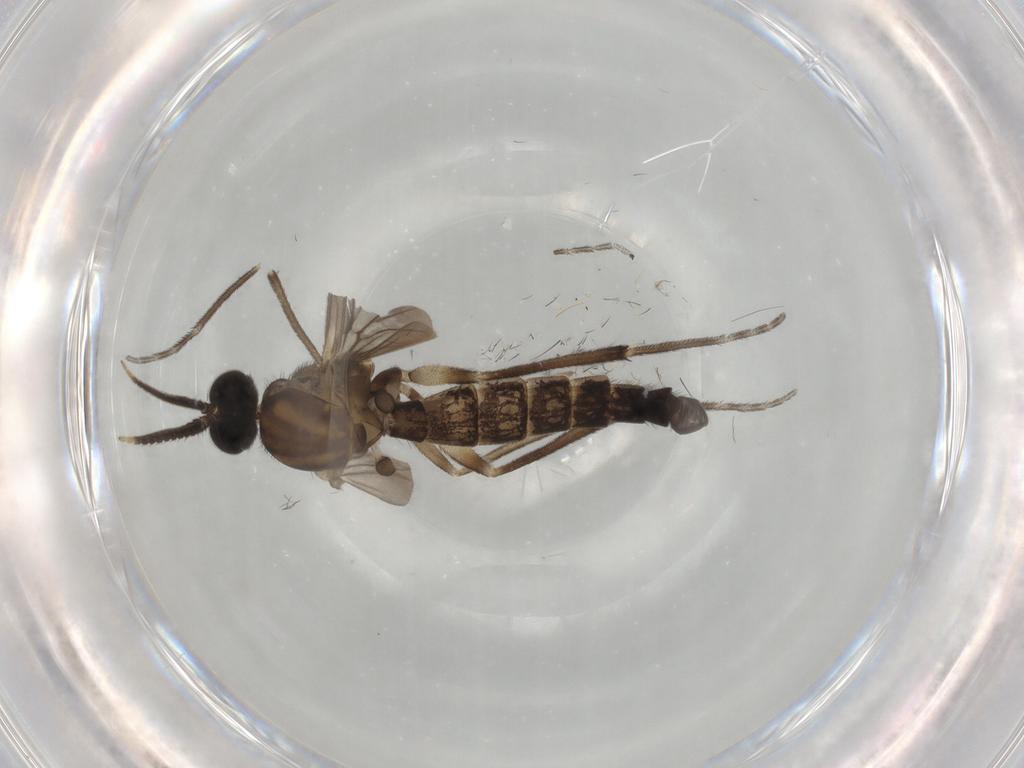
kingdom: Animalia
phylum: Arthropoda
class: Insecta
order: Diptera
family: Keroplatidae
